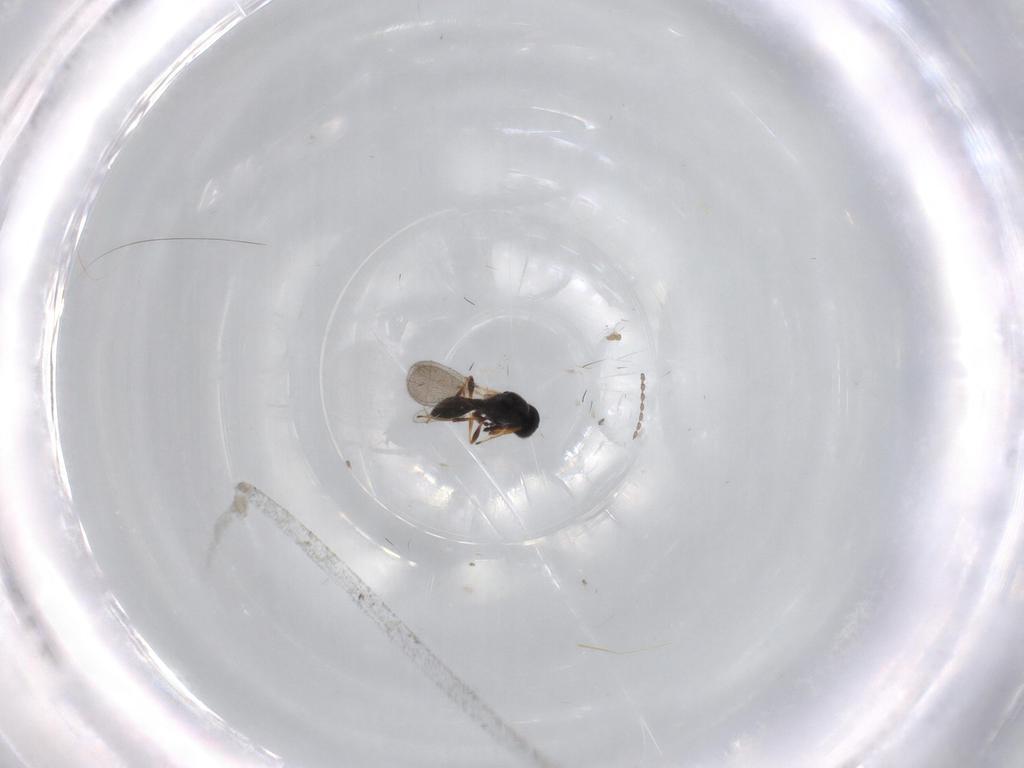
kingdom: Animalia
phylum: Arthropoda
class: Insecta
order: Hymenoptera
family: Platygastridae
